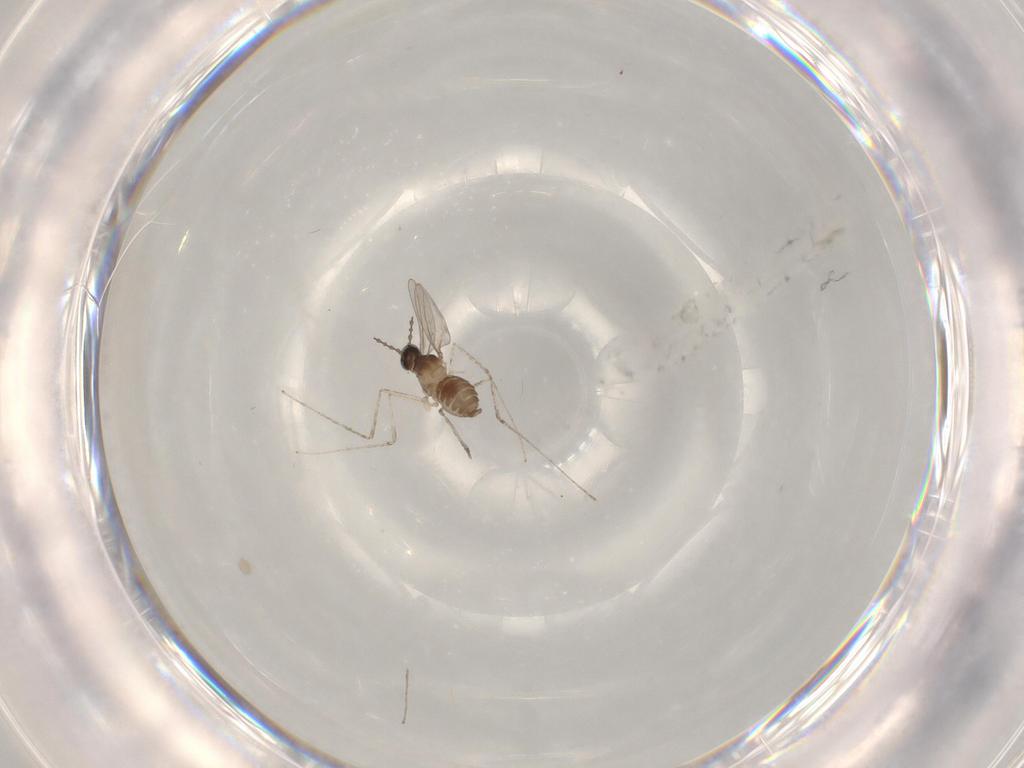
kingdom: Animalia
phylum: Arthropoda
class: Insecta
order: Diptera
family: Cecidomyiidae
